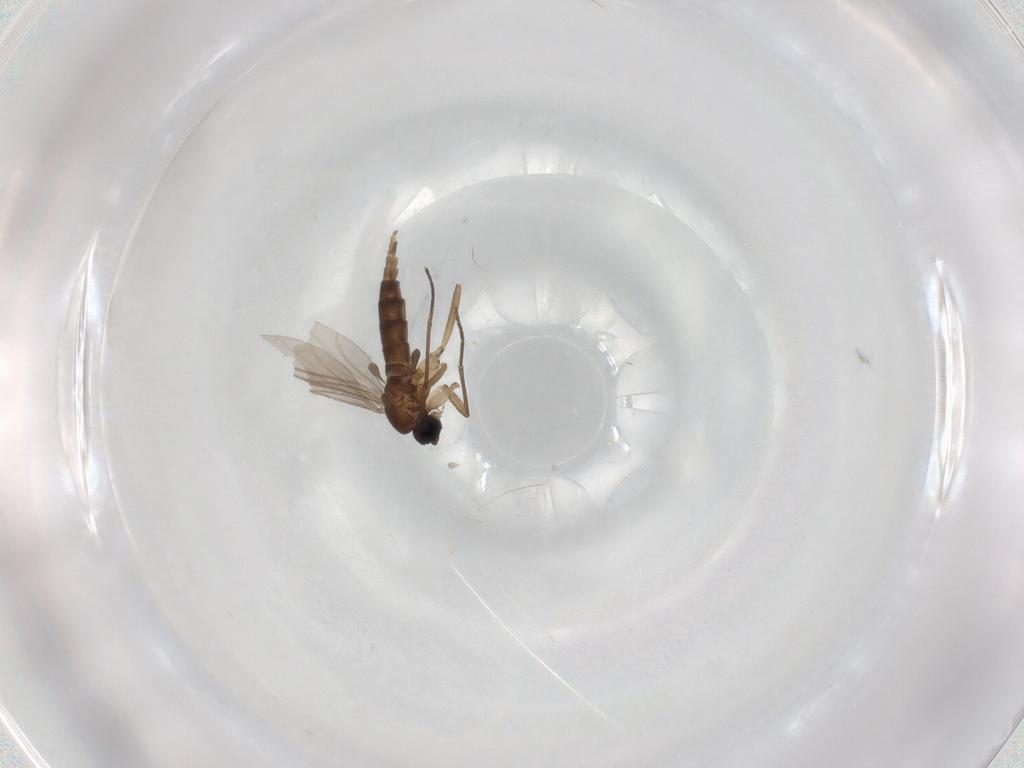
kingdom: Animalia
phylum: Arthropoda
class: Insecta
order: Diptera
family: Sciaridae
